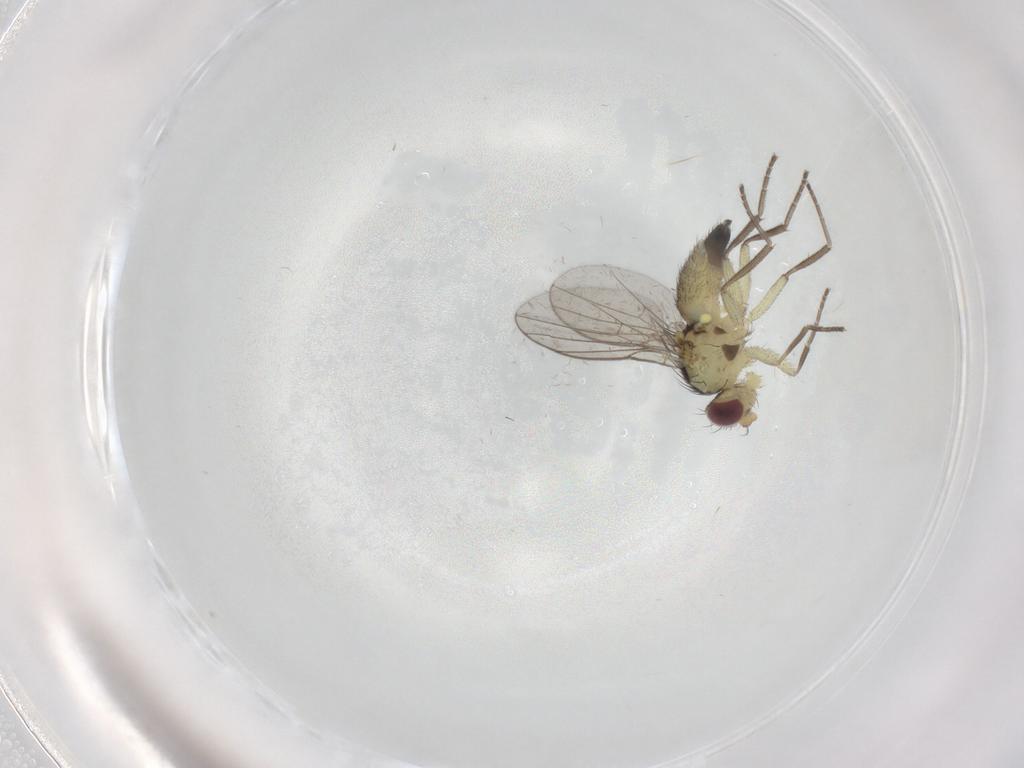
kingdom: Animalia
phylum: Arthropoda
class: Insecta
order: Diptera
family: Agromyzidae
